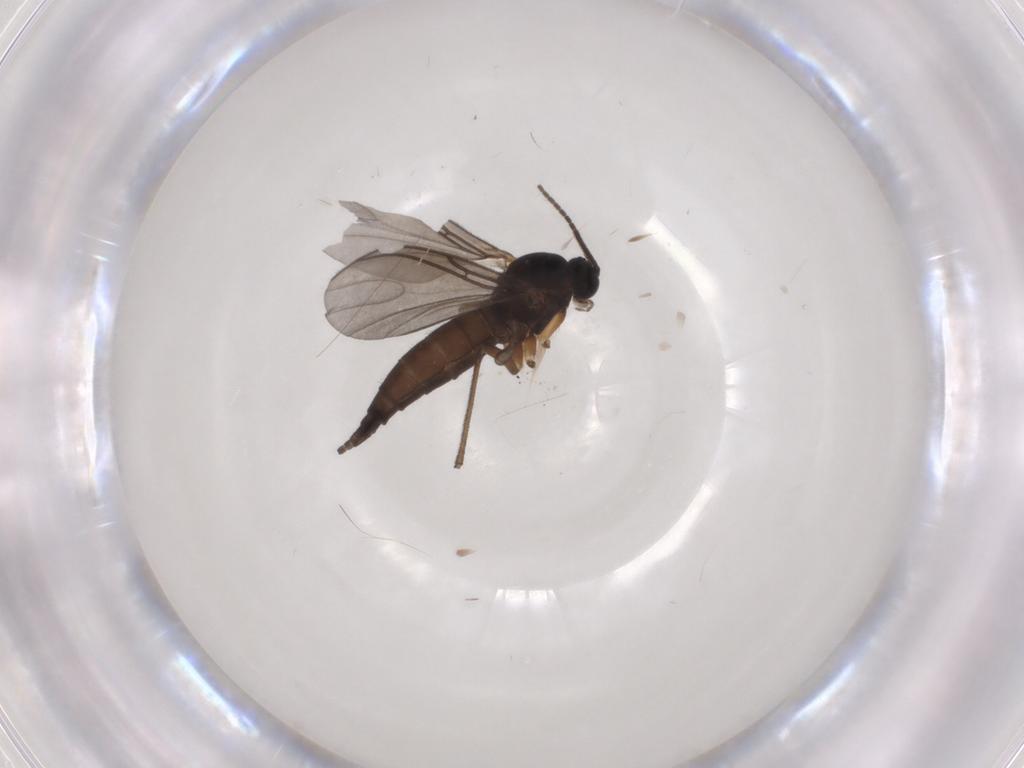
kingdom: Animalia
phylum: Arthropoda
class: Insecta
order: Diptera
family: Sciaridae
